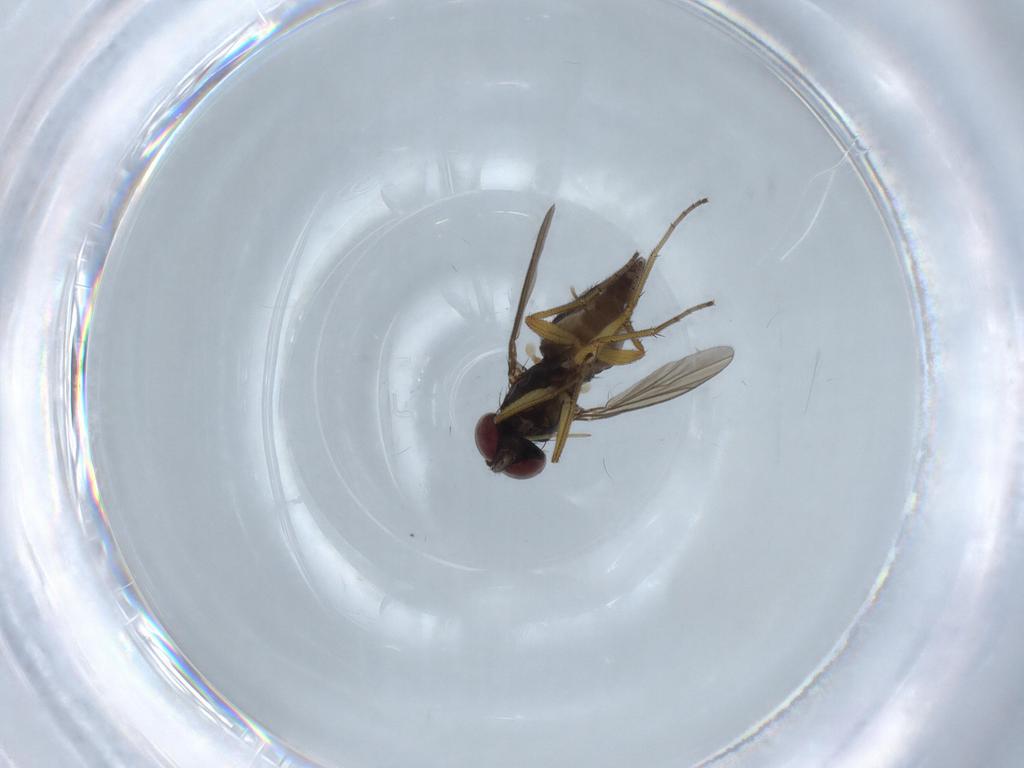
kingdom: Animalia
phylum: Arthropoda
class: Insecta
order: Diptera
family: Dolichopodidae
